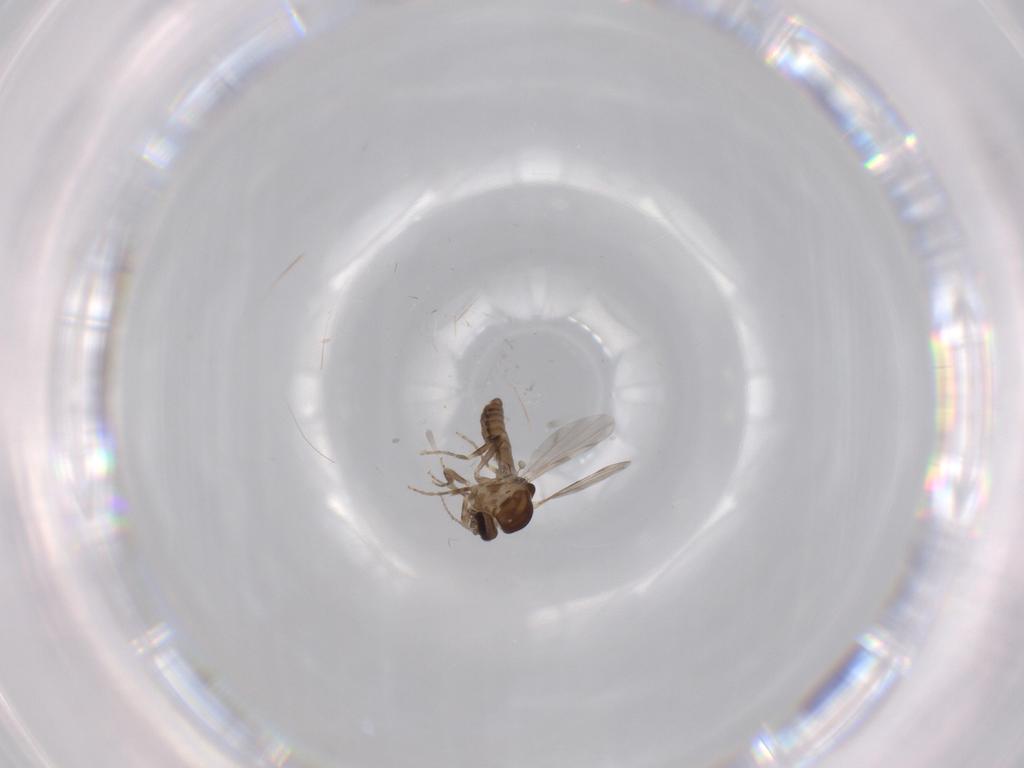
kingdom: Animalia
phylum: Arthropoda
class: Insecta
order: Diptera
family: Ceratopogonidae
